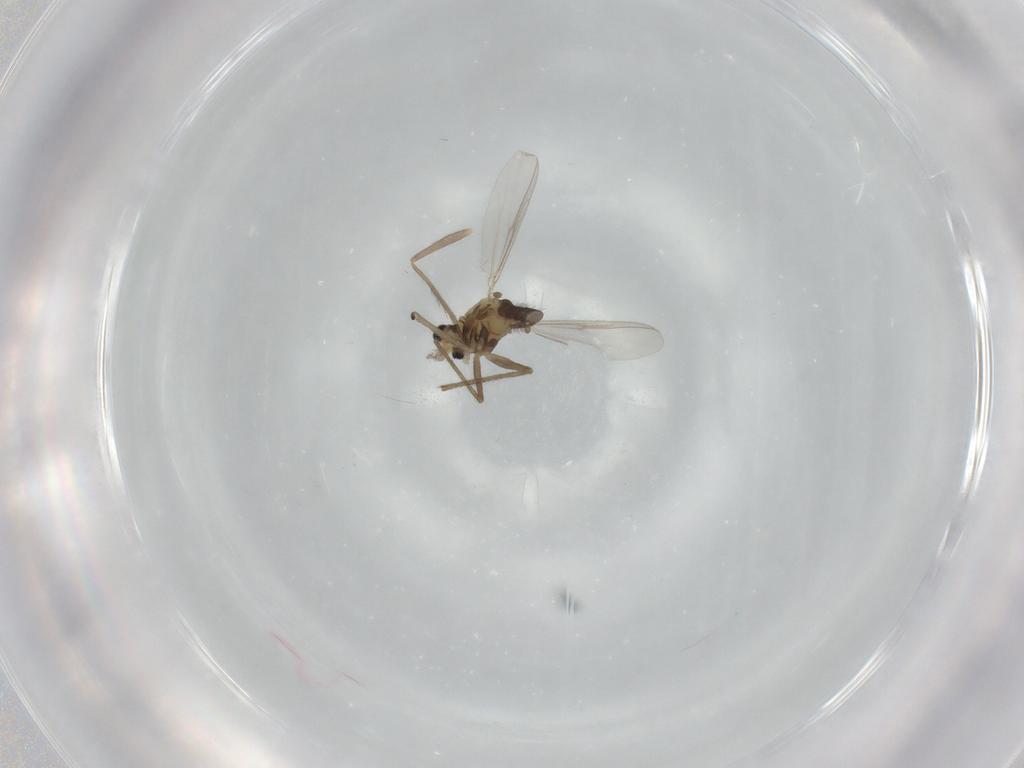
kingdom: Animalia
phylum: Arthropoda
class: Insecta
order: Diptera
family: Chironomidae
